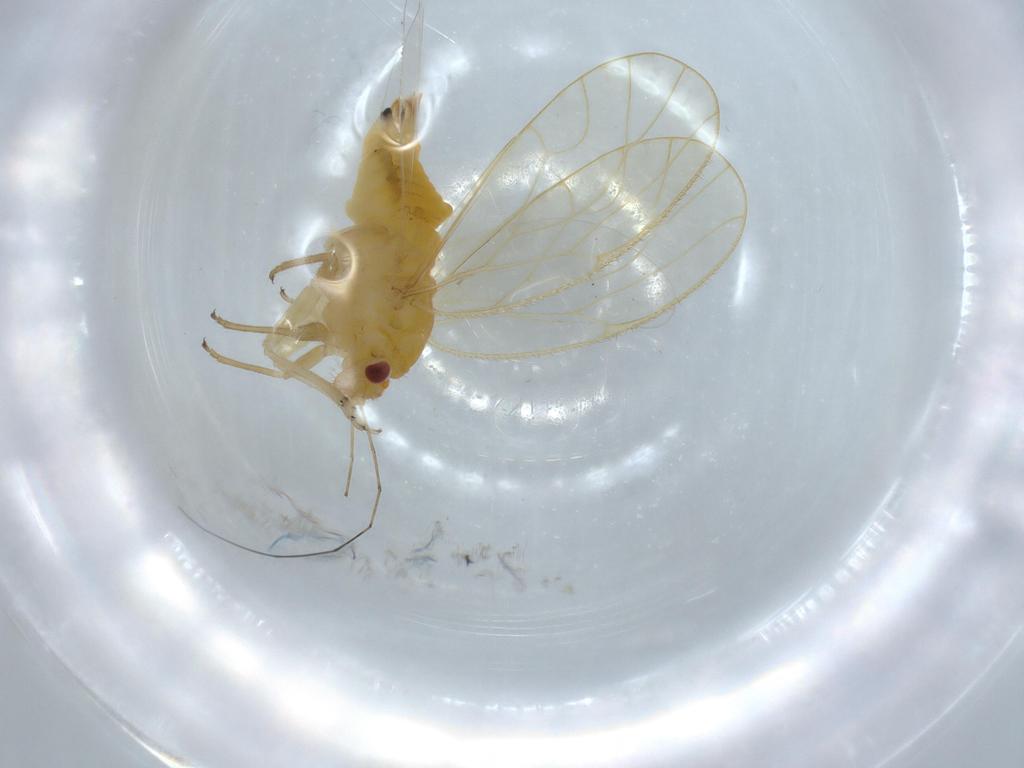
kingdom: Animalia
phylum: Arthropoda
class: Insecta
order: Hemiptera
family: Psyllidae
